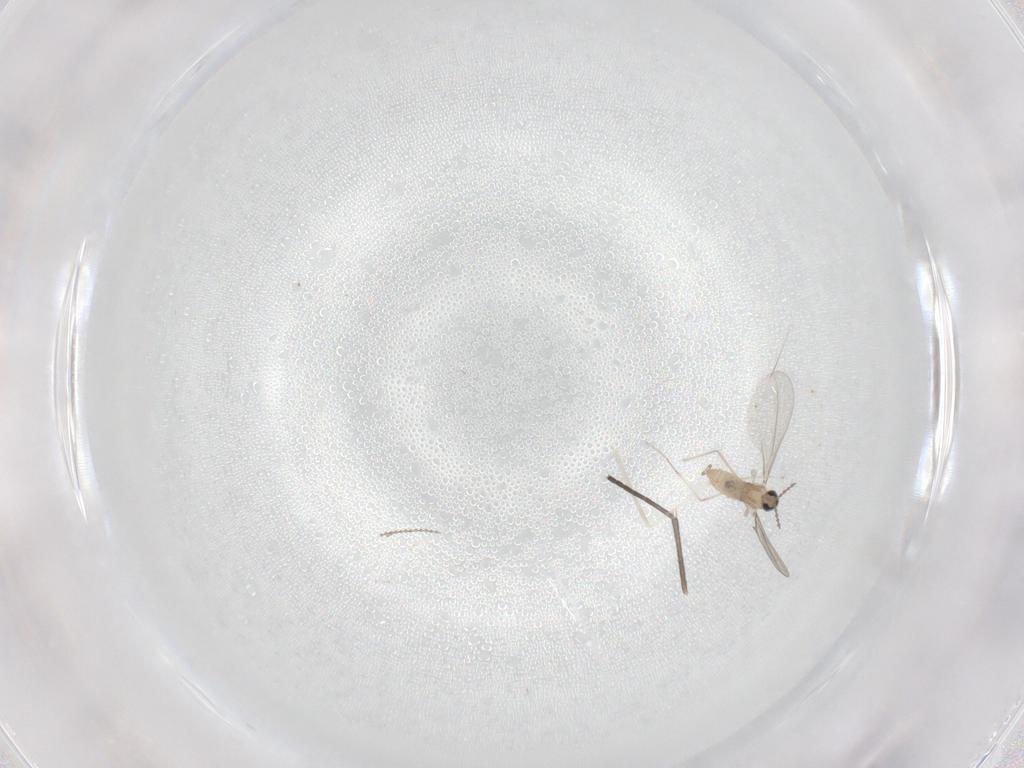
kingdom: Animalia
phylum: Arthropoda
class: Insecta
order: Diptera
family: Cecidomyiidae
